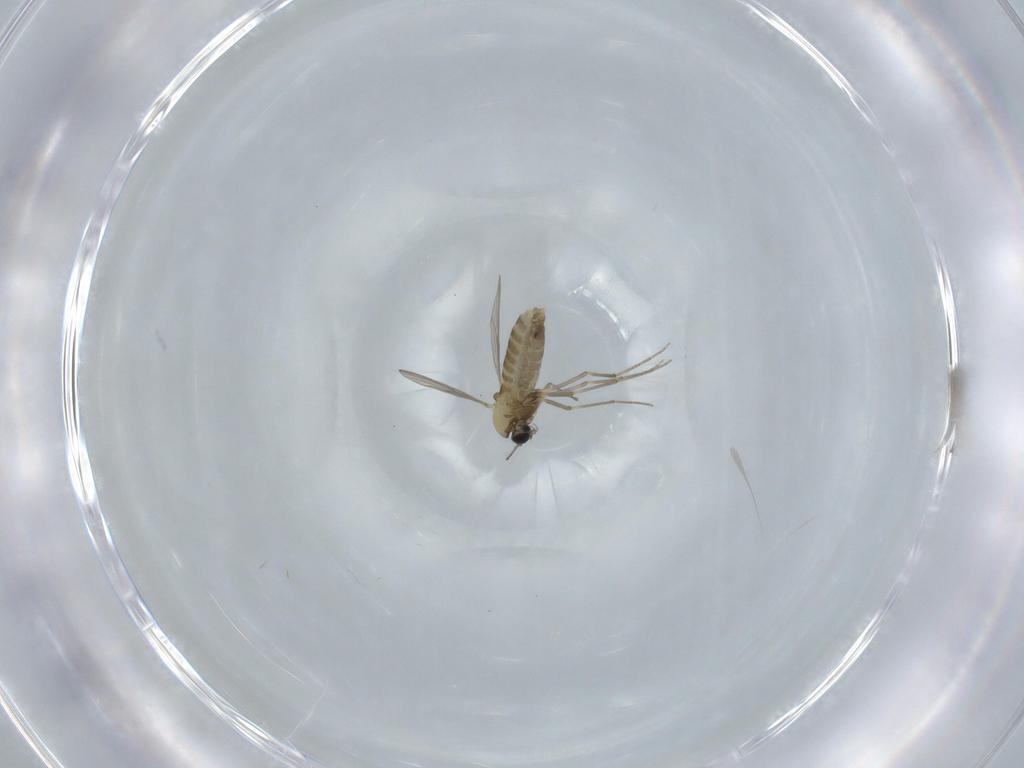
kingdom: Animalia
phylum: Arthropoda
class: Insecta
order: Diptera
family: Chironomidae
